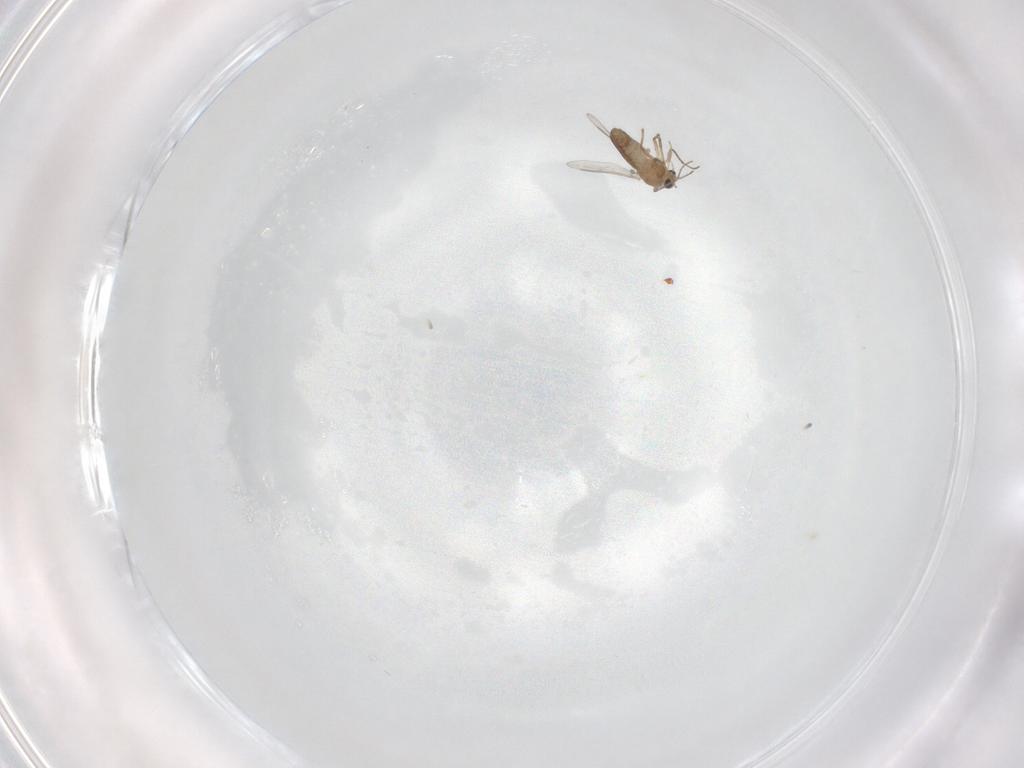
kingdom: Animalia
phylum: Arthropoda
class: Insecta
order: Diptera
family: Chironomidae
